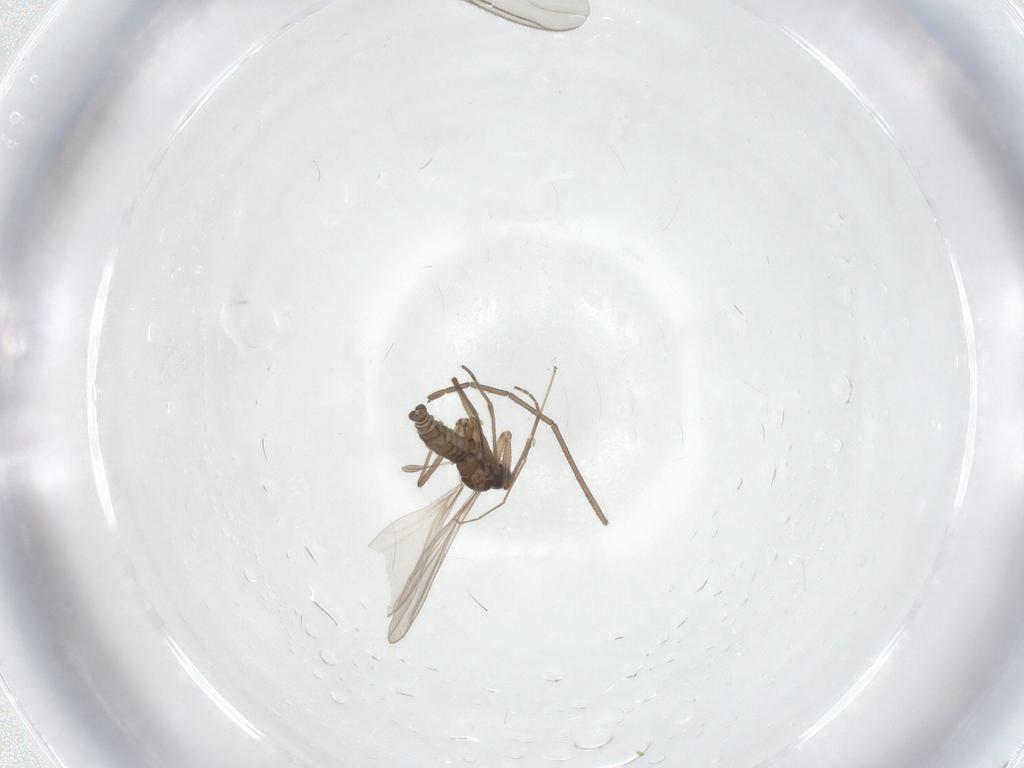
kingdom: Animalia
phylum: Arthropoda
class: Insecta
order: Diptera
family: Sciaridae
